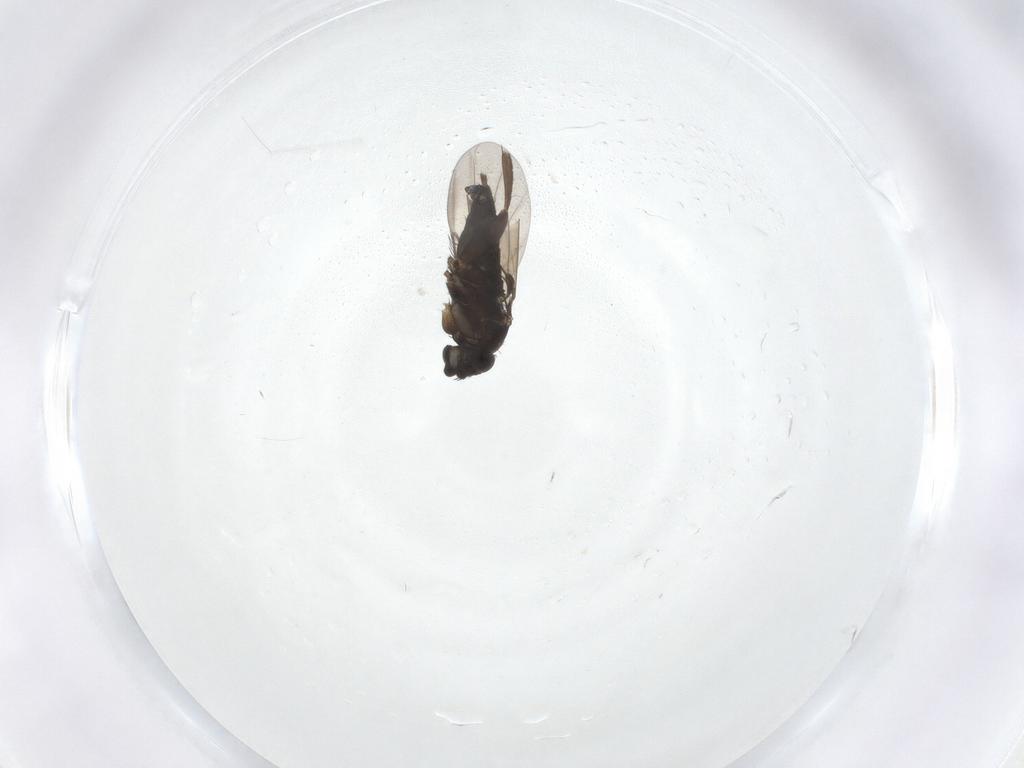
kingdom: Animalia
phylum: Arthropoda
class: Insecta
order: Diptera
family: Phoridae
